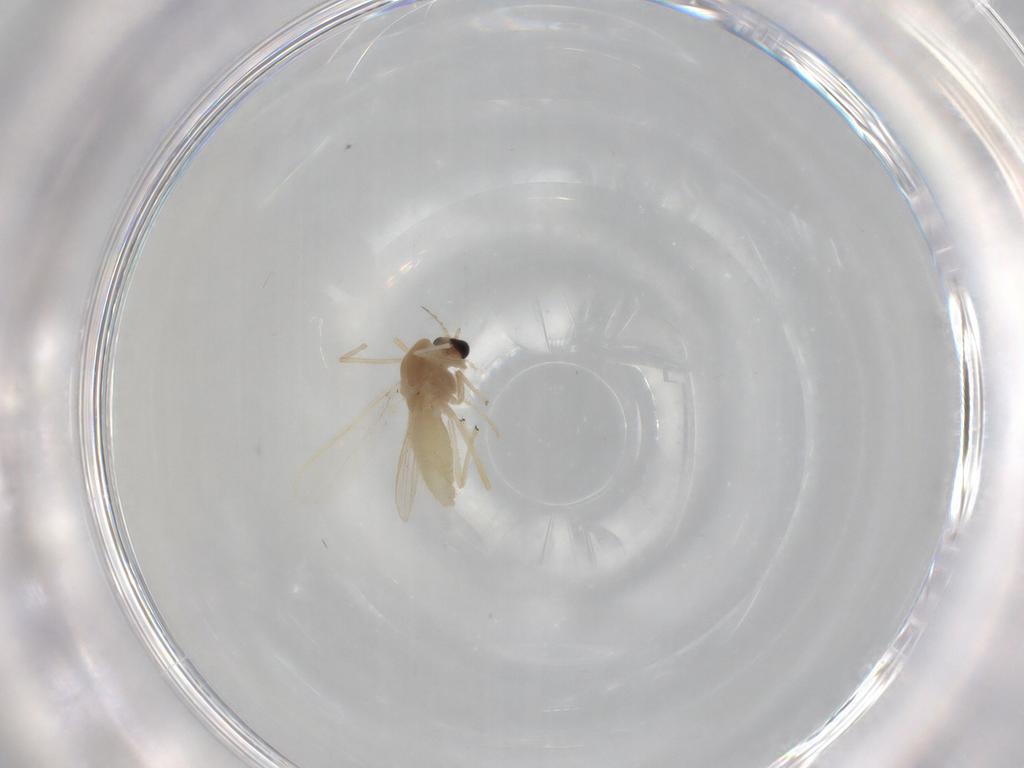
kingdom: Animalia
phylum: Arthropoda
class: Insecta
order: Diptera
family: Chironomidae
